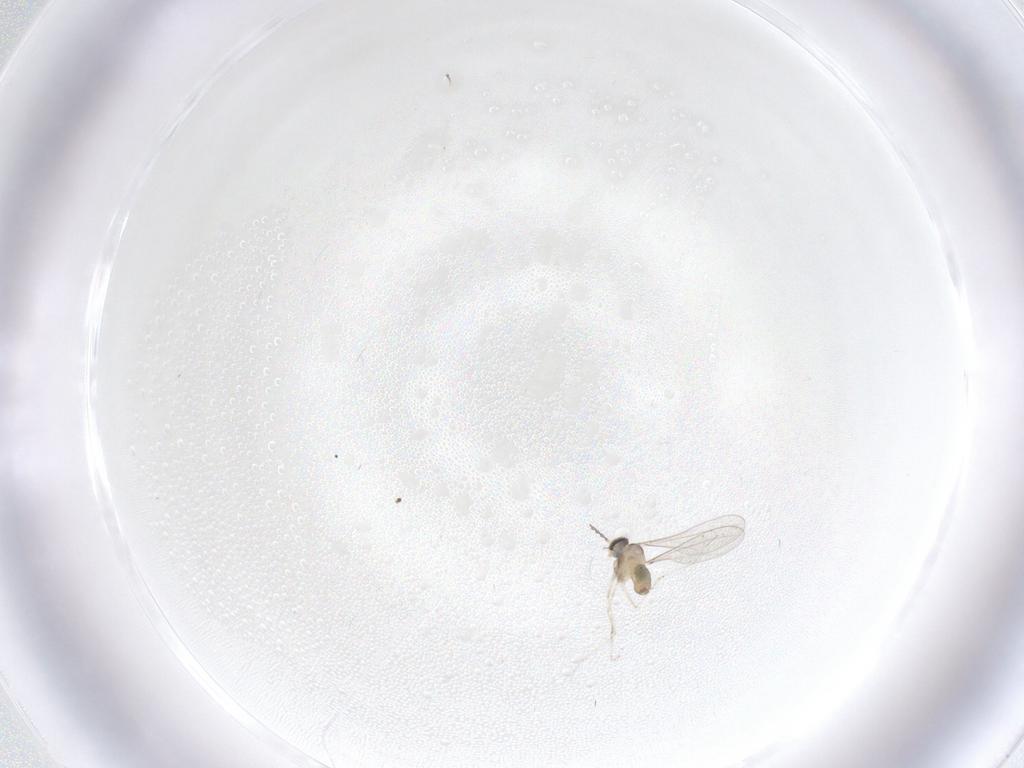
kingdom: Animalia
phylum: Arthropoda
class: Insecta
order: Diptera
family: Cecidomyiidae
